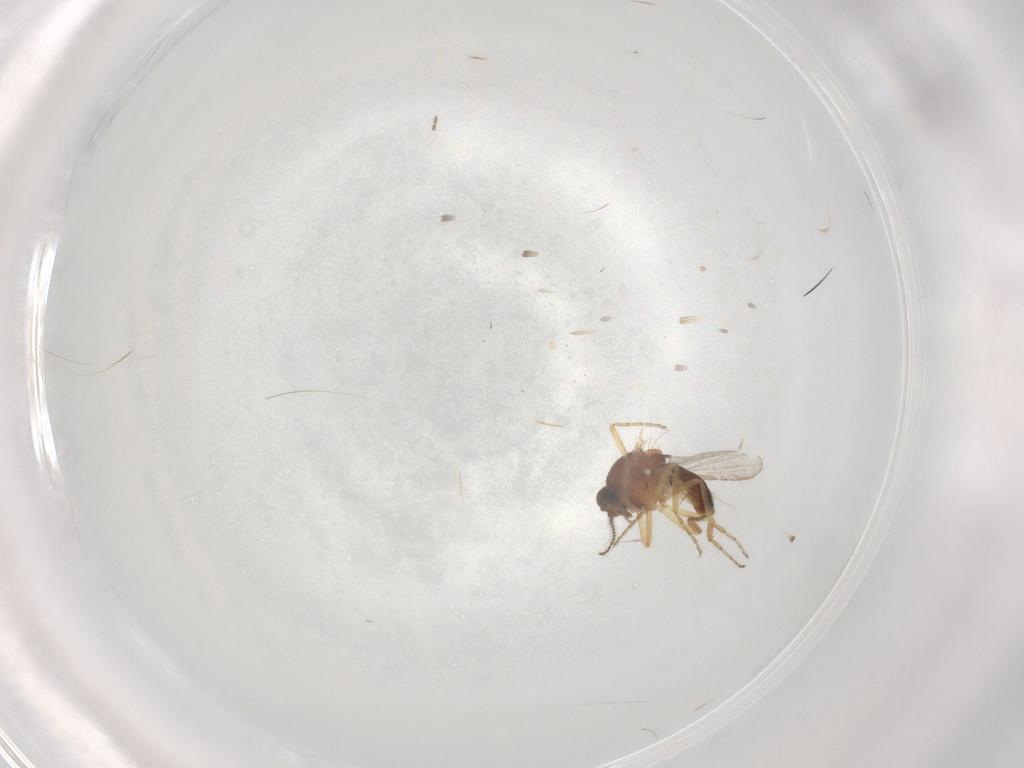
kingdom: Animalia
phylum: Arthropoda
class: Insecta
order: Diptera
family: Ceratopogonidae
